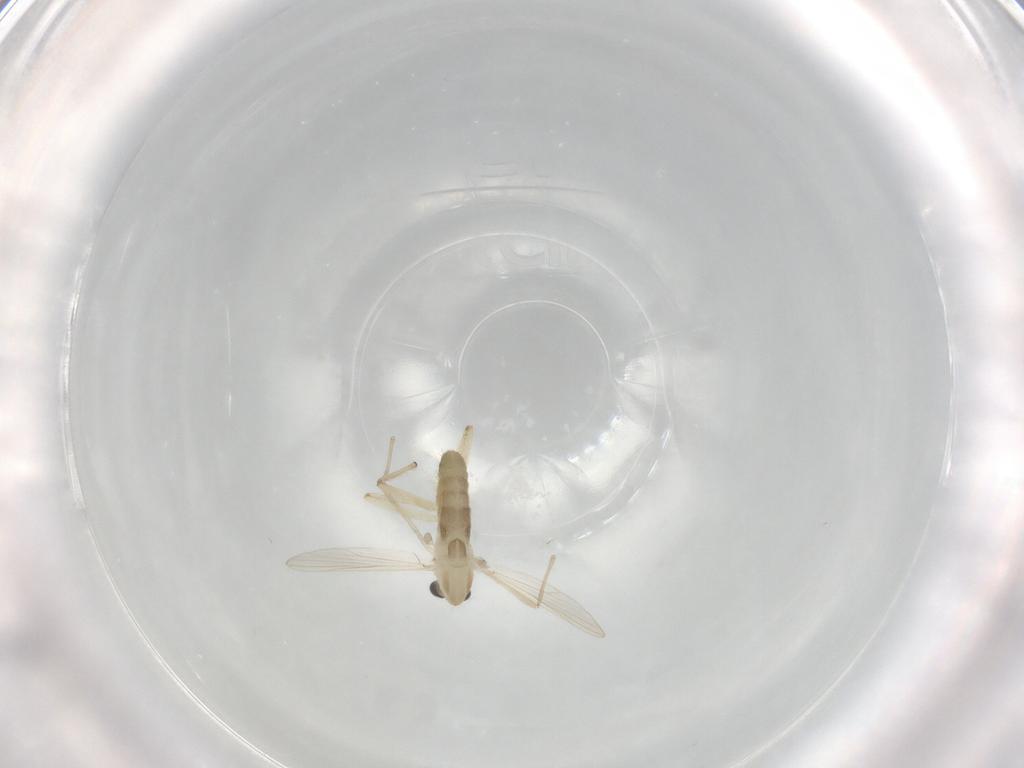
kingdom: Animalia
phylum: Arthropoda
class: Insecta
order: Diptera
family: Chironomidae
